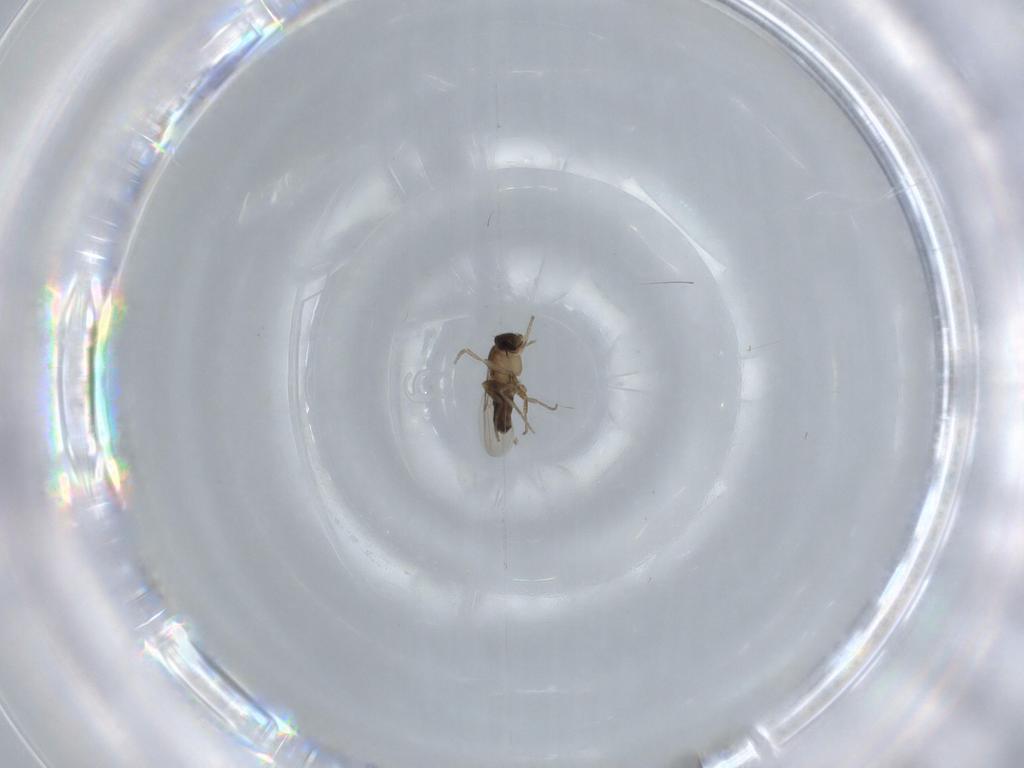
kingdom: Animalia
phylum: Arthropoda
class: Insecta
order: Diptera
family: Phoridae
